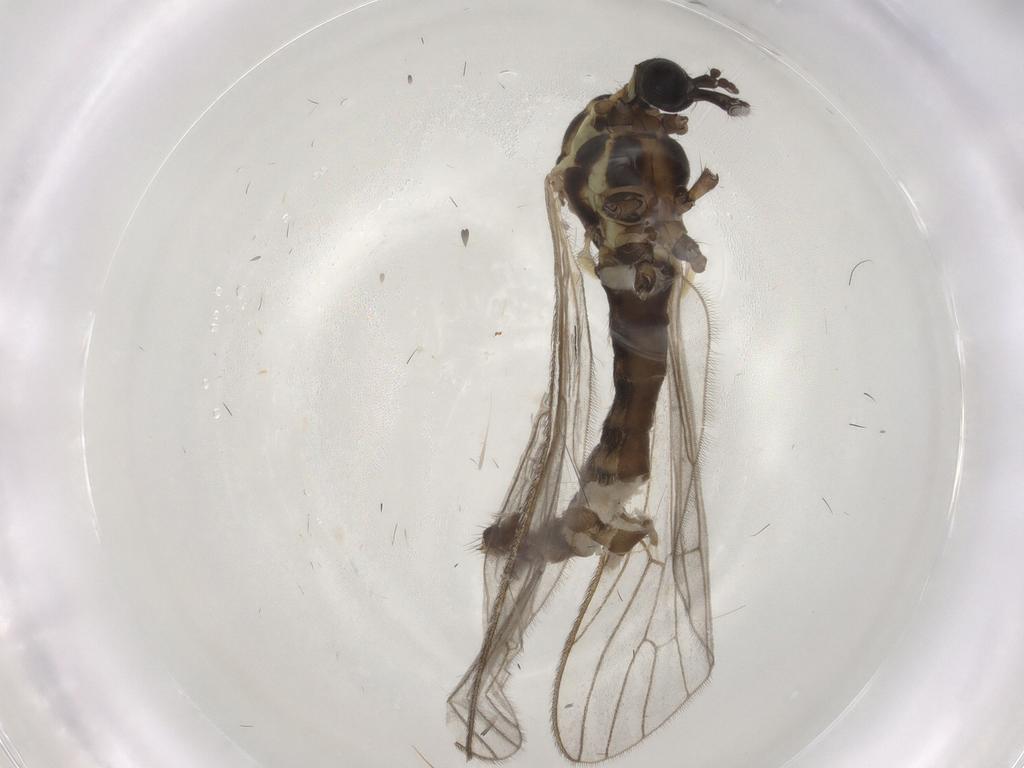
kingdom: Animalia
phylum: Arthropoda
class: Insecta
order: Diptera
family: Limoniidae
